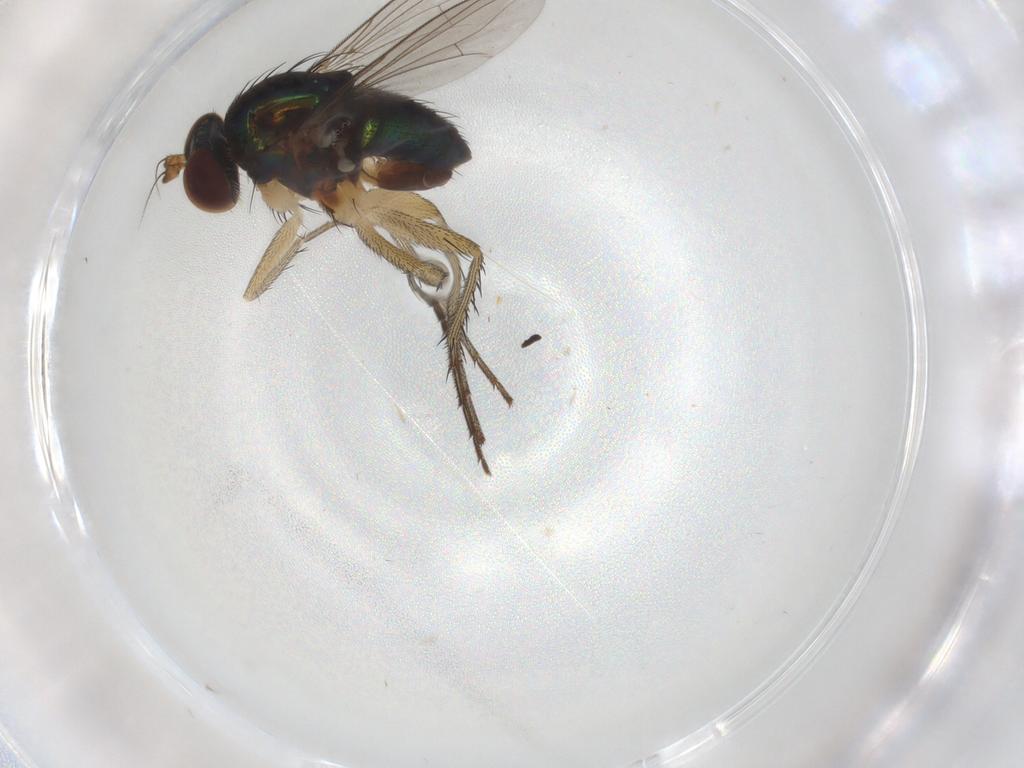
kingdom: Animalia
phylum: Arthropoda
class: Insecta
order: Diptera
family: Dolichopodidae
